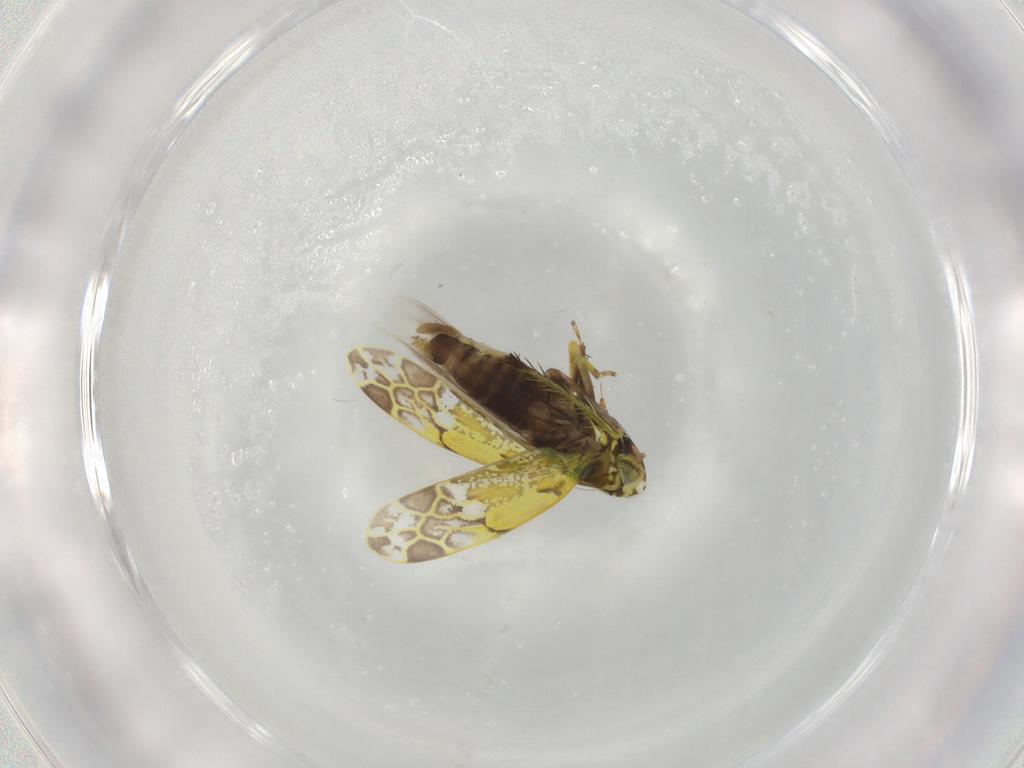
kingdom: Animalia
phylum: Arthropoda
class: Insecta
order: Hemiptera
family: Cicadellidae
